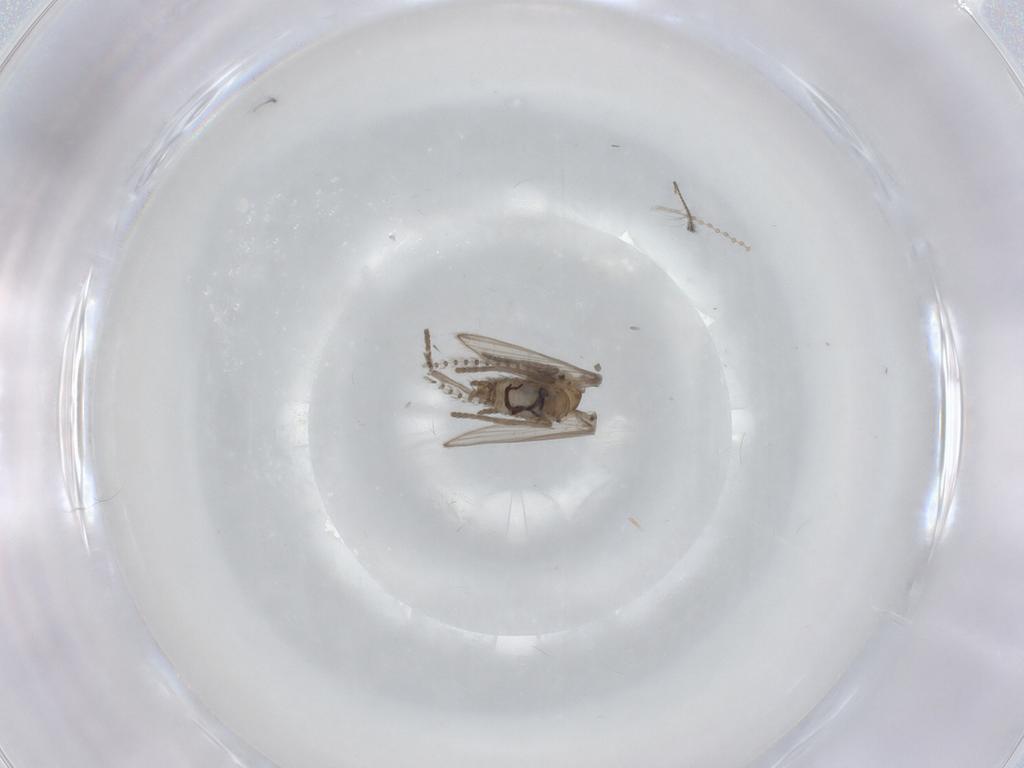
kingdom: Animalia
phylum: Arthropoda
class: Insecta
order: Diptera
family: Psychodidae
